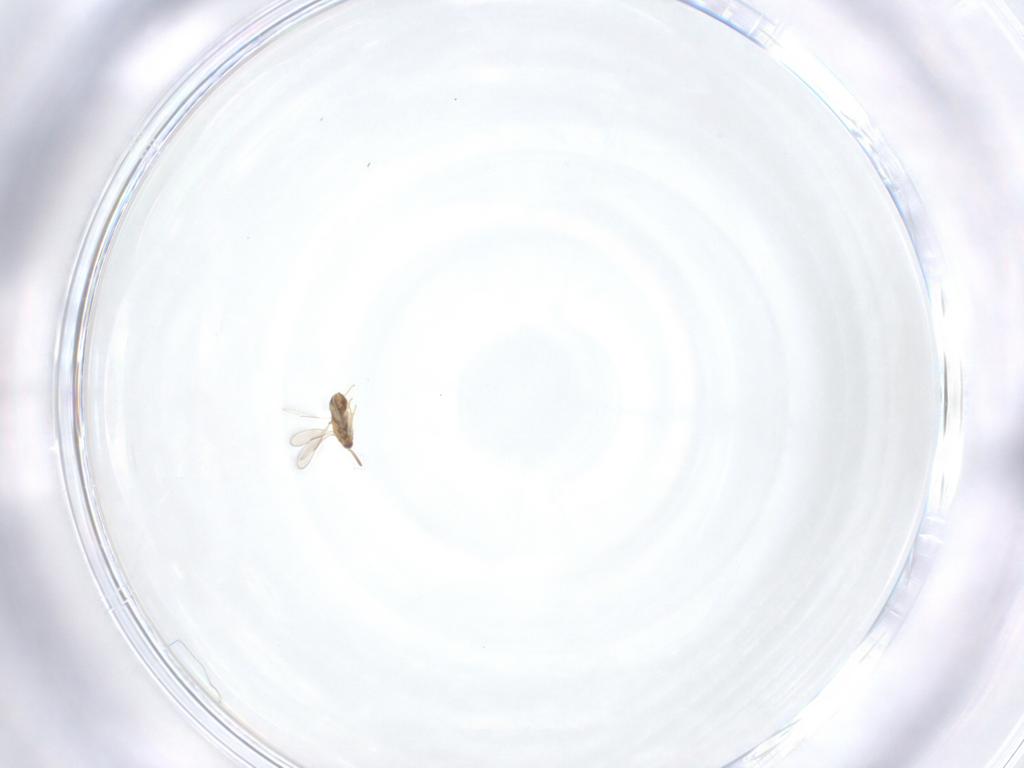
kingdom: Animalia
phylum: Arthropoda
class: Insecta
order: Hymenoptera
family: Aphelinidae
